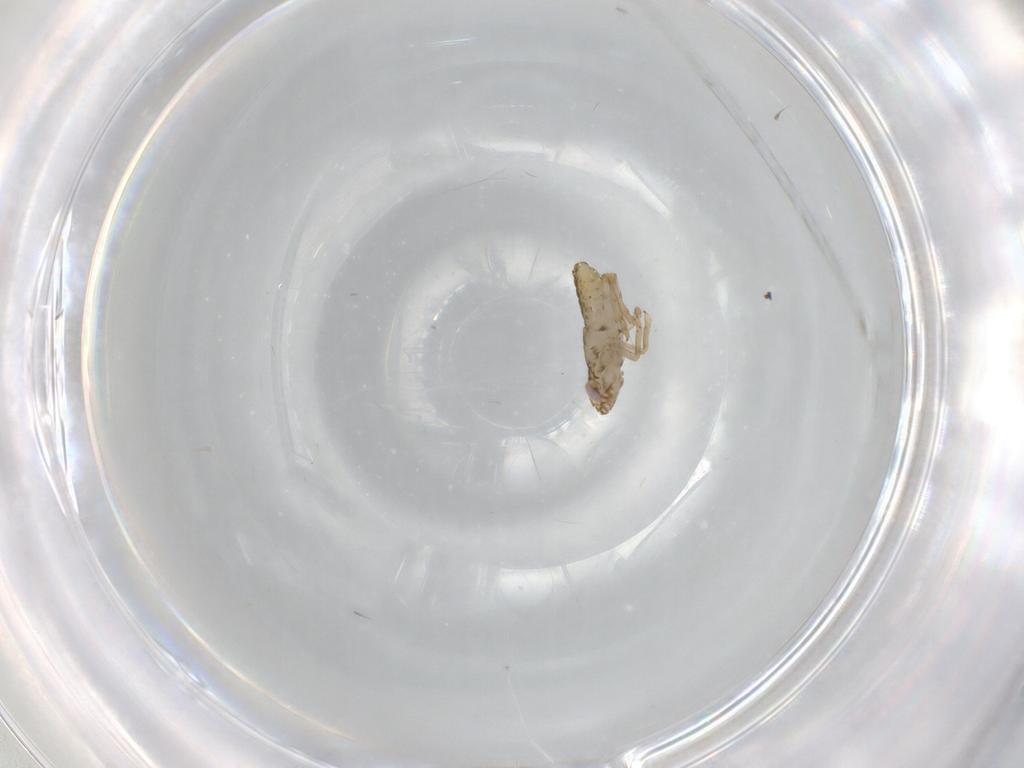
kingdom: Animalia
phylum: Arthropoda
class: Insecta
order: Hemiptera
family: Delphacidae
